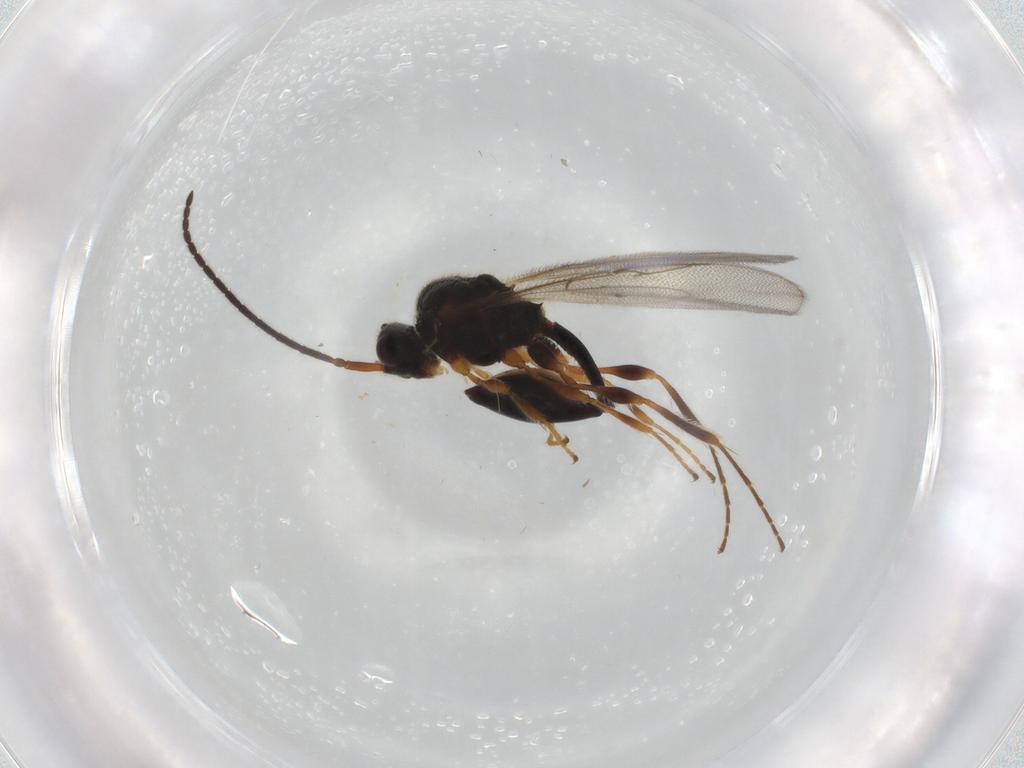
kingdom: Animalia
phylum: Arthropoda
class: Insecta
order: Hymenoptera
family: Diapriidae
